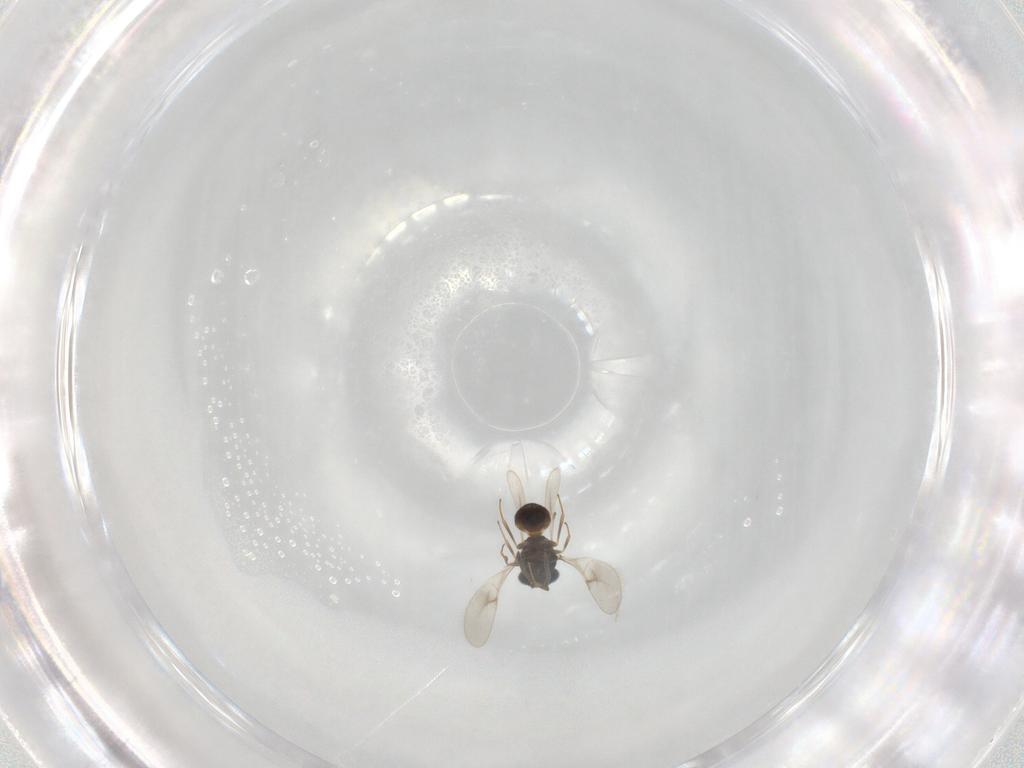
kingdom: Animalia
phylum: Arthropoda
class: Insecta
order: Hymenoptera
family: Scelionidae
